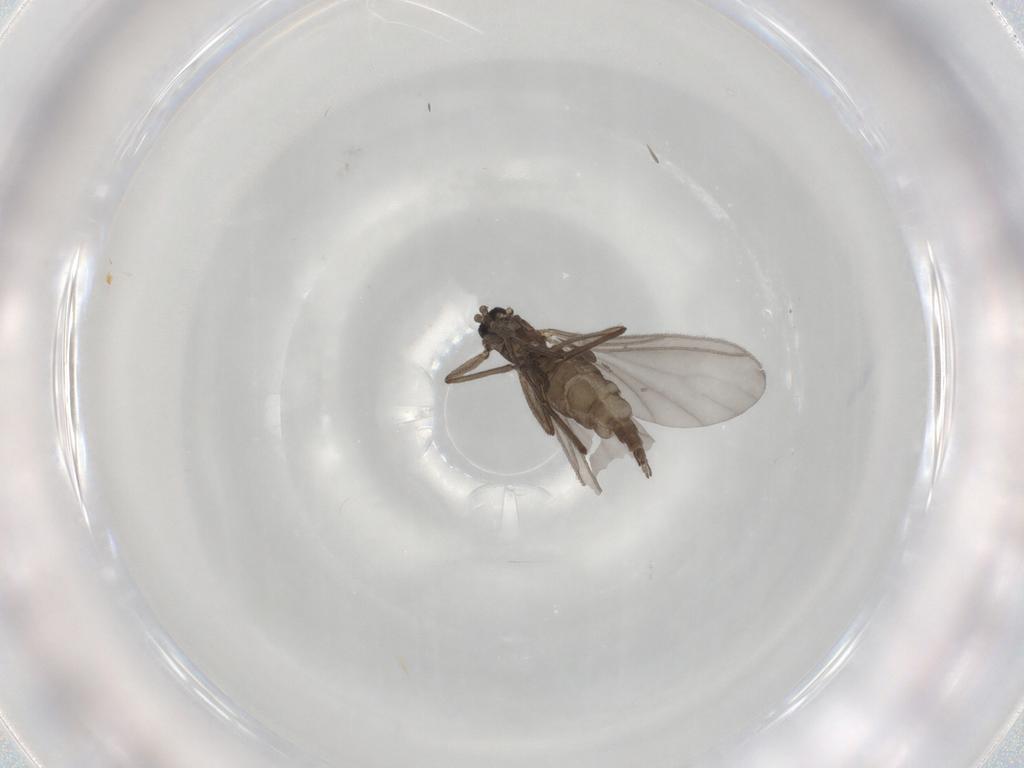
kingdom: Animalia
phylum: Arthropoda
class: Insecta
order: Diptera
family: Sciaridae
